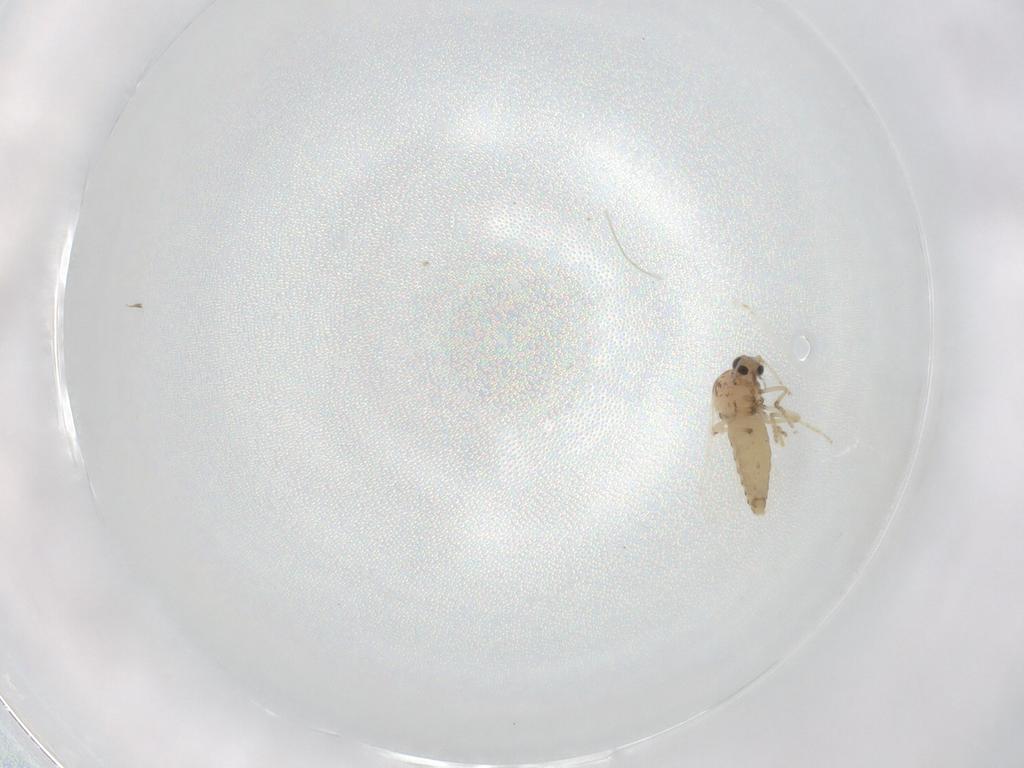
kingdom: Animalia
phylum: Arthropoda
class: Insecta
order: Diptera
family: Ceratopogonidae
